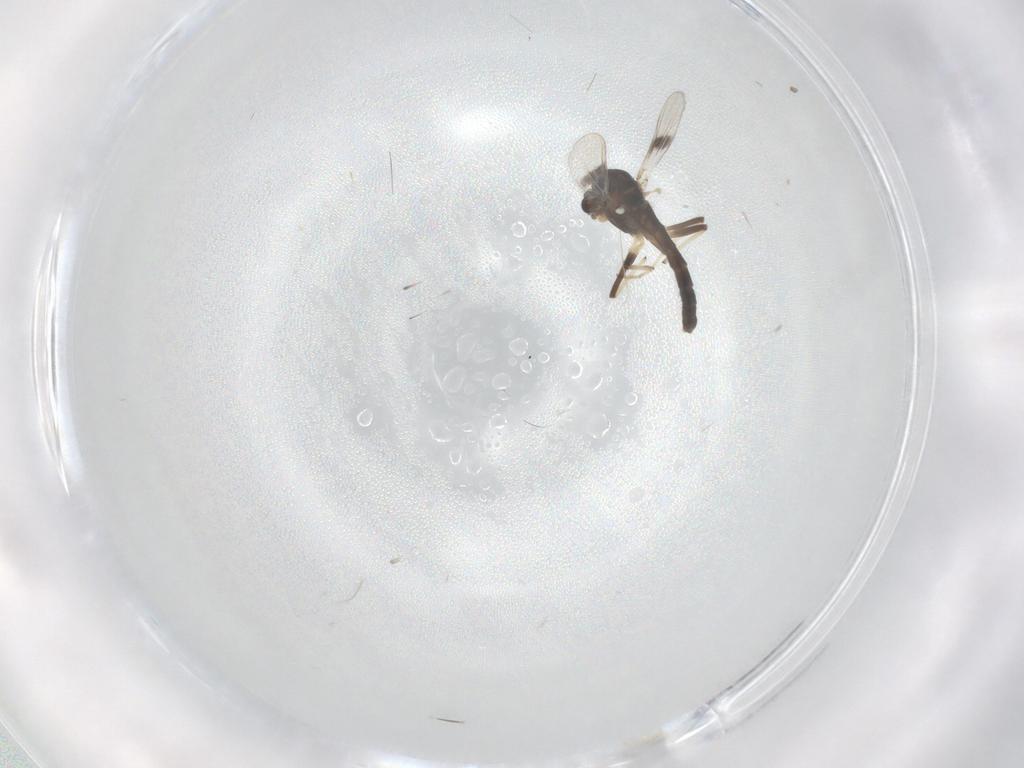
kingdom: Animalia
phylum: Arthropoda
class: Insecta
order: Diptera
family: Chironomidae
